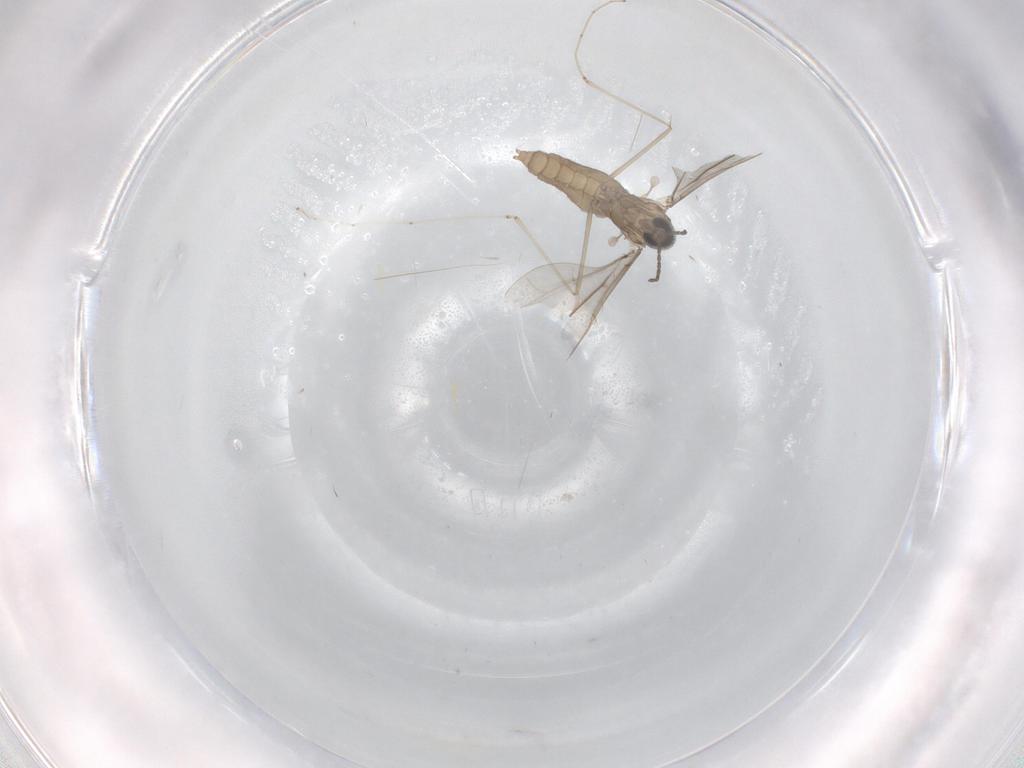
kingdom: Animalia
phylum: Arthropoda
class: Insecta
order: Diptera
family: Cecidomyiidae
